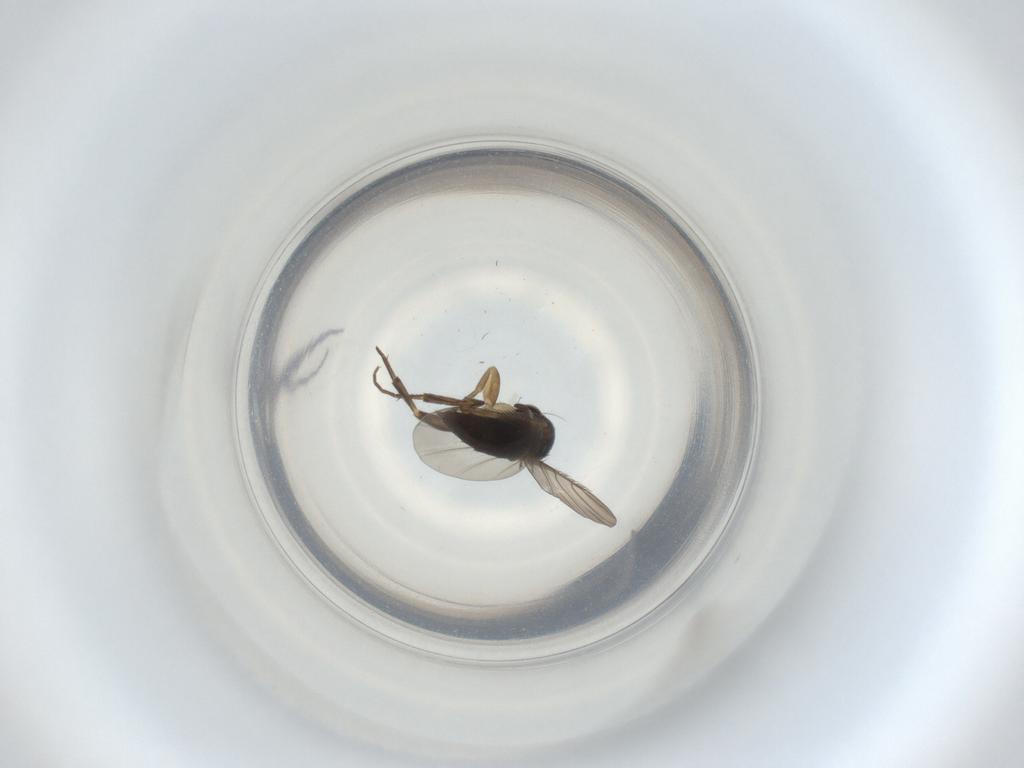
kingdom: Animalia
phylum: Arthropoda
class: Insecta
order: Diptera
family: Phoridae
